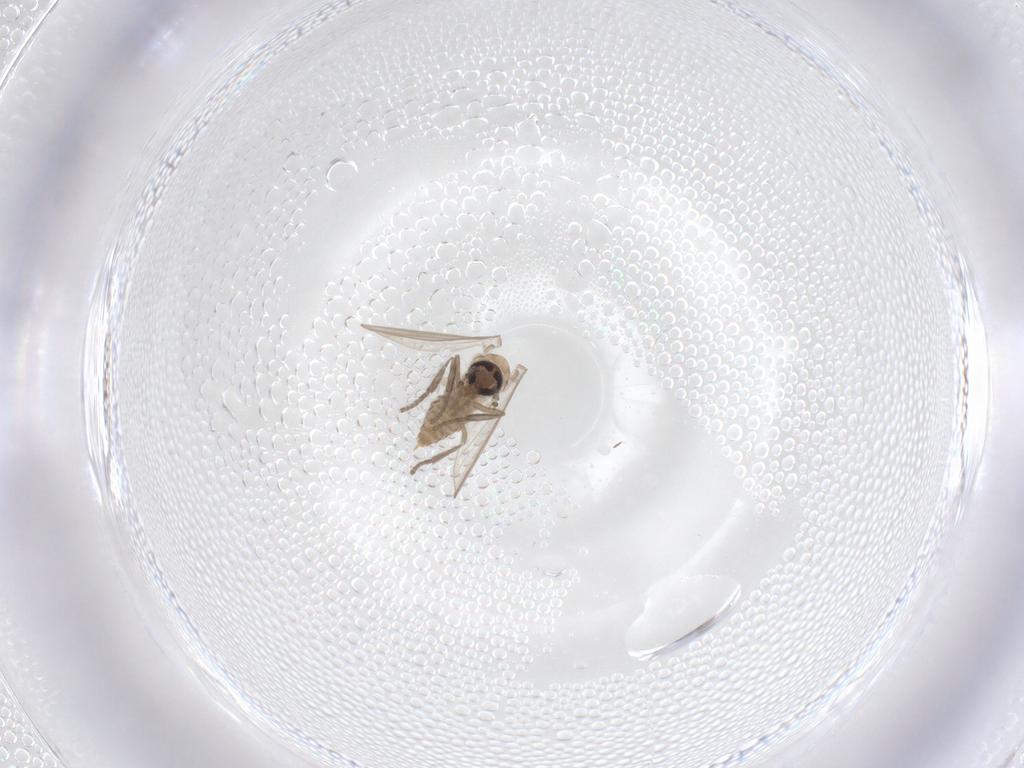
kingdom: Animalia
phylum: Arthropoda
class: Insecta
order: Diptera
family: Psychodidae
